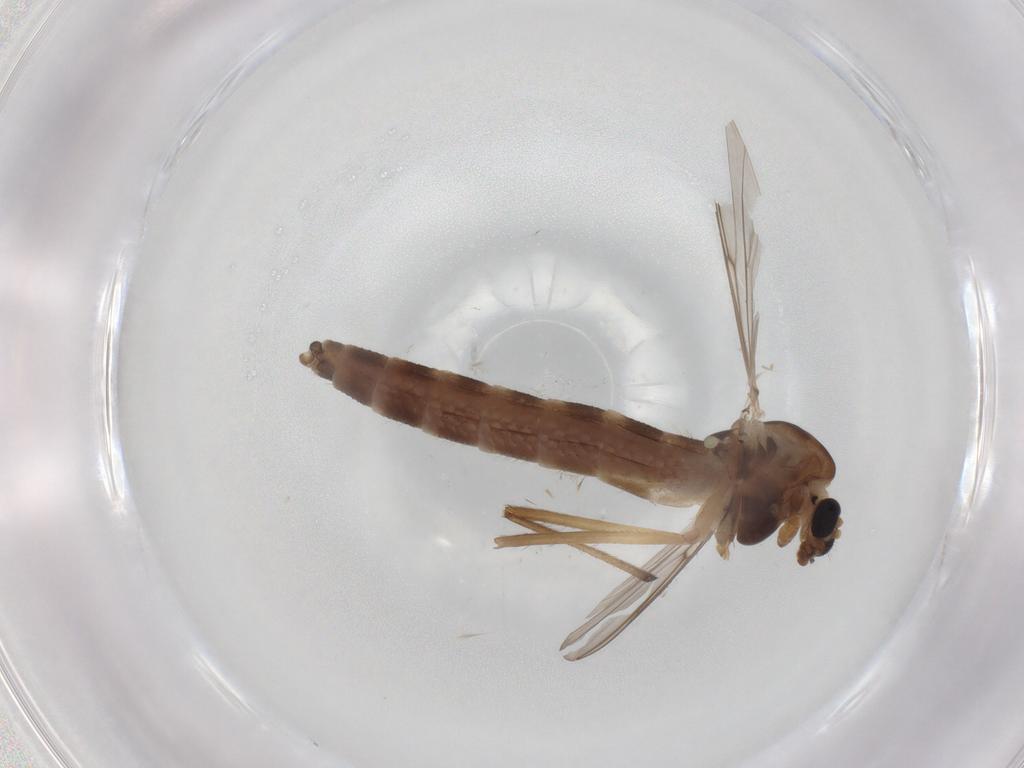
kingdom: Animalia
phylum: Arthropoda
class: Insecta
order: Diptera
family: Chironomidae
